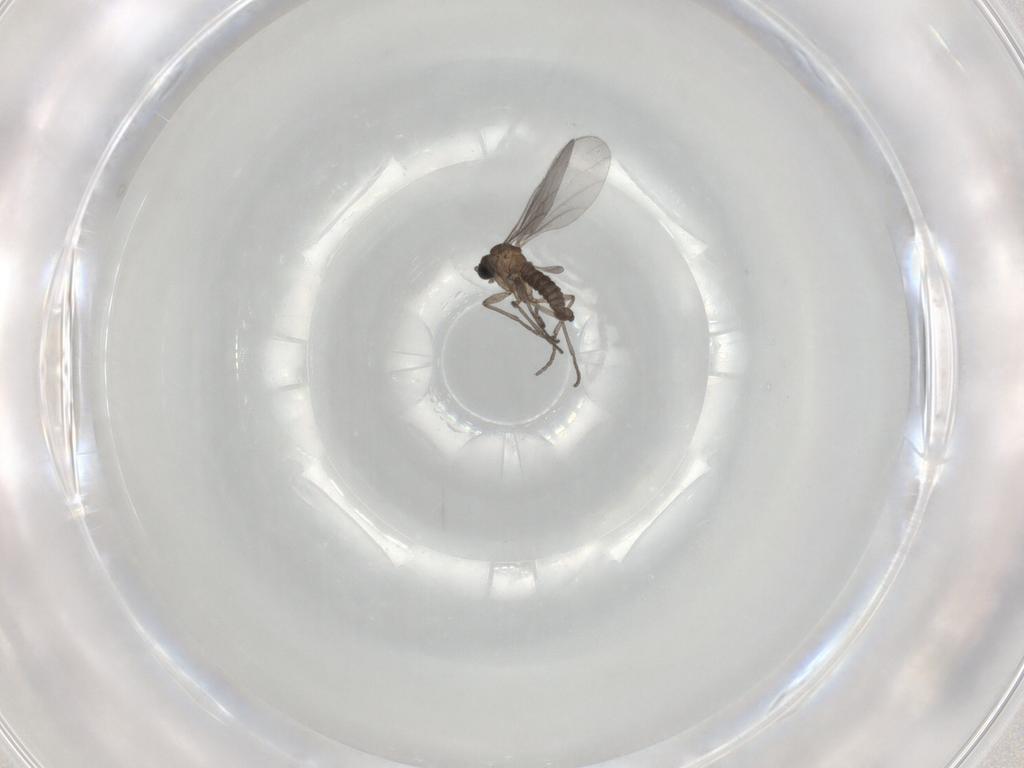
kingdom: Animalia
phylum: Arthropoda
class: Insecta
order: Diptera
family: Sciaridae
